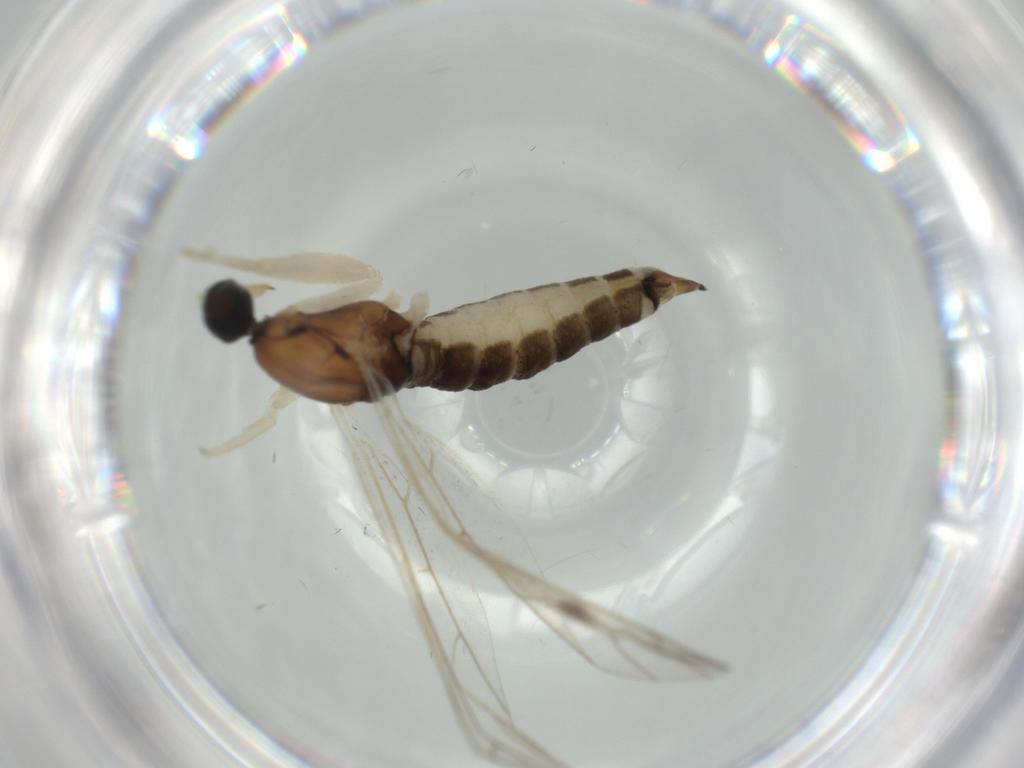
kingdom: Animalia
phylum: Arthropoda
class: Insecta
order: Diptera
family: Empididae
